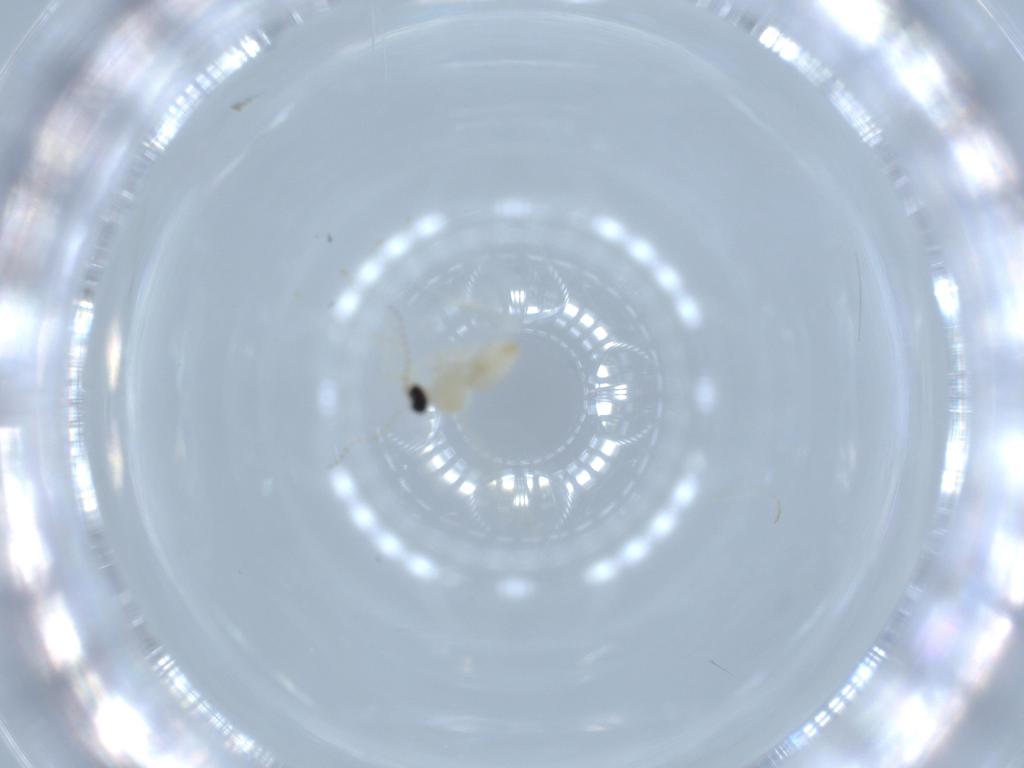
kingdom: Animalia
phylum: Arthropoda
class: Insecta
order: Diptera
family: Cecidomyiidae
